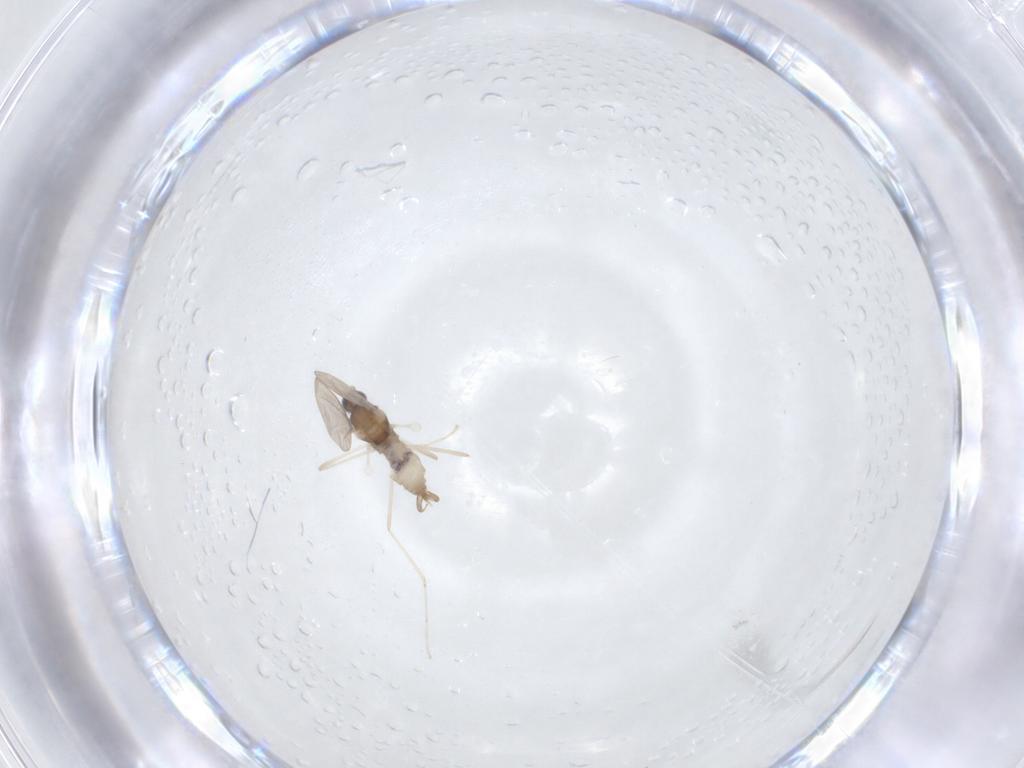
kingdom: Animalia
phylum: Arthropoda
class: Insecta
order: Diptera
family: Cecidomyiidae
